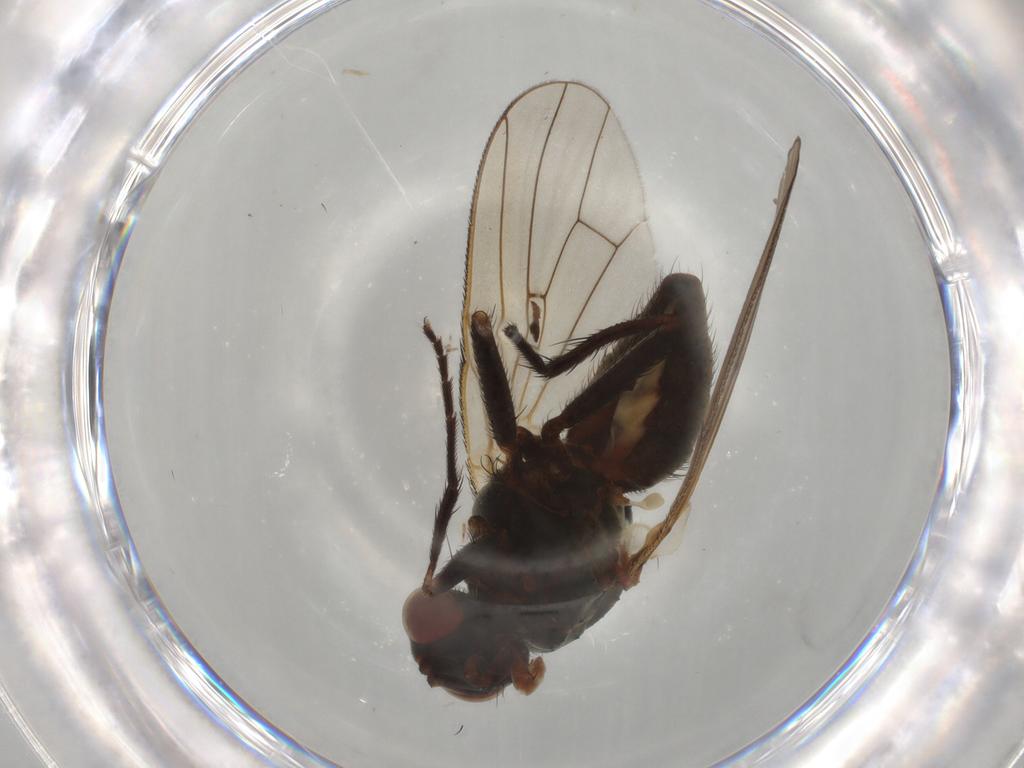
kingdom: Animalia
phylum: Arthropoda
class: Insecta
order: Diptera
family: Anthomyiidae
